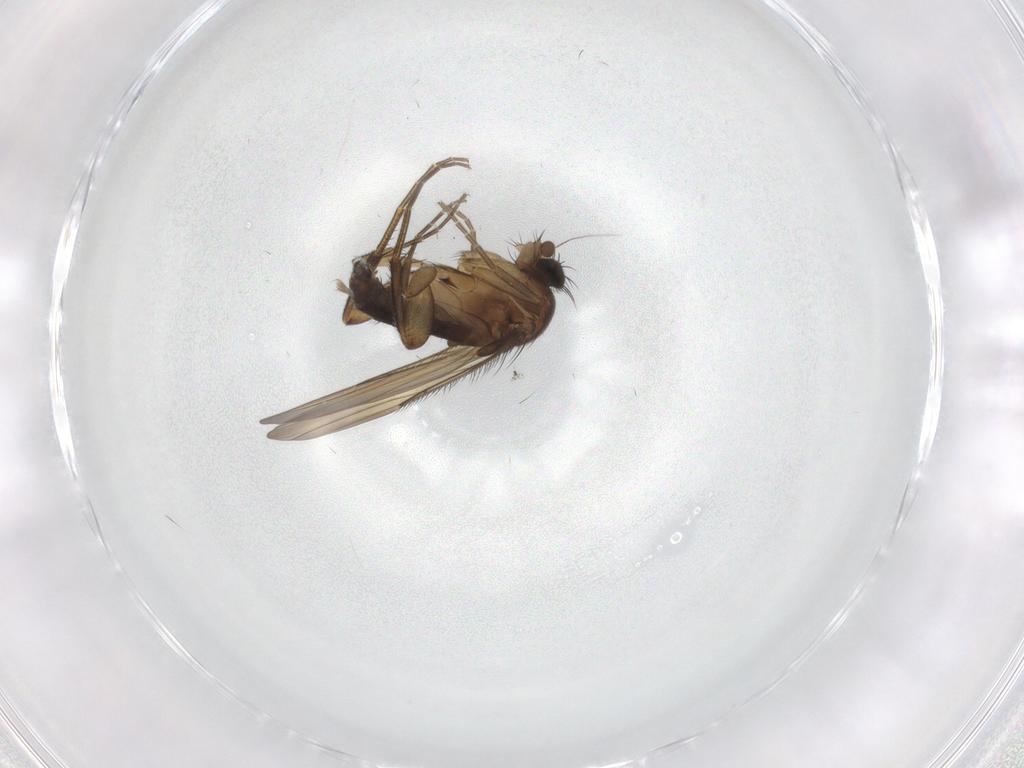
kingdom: Animalia
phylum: Arthropoda
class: Insecta
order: Diptera
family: Phoridae
